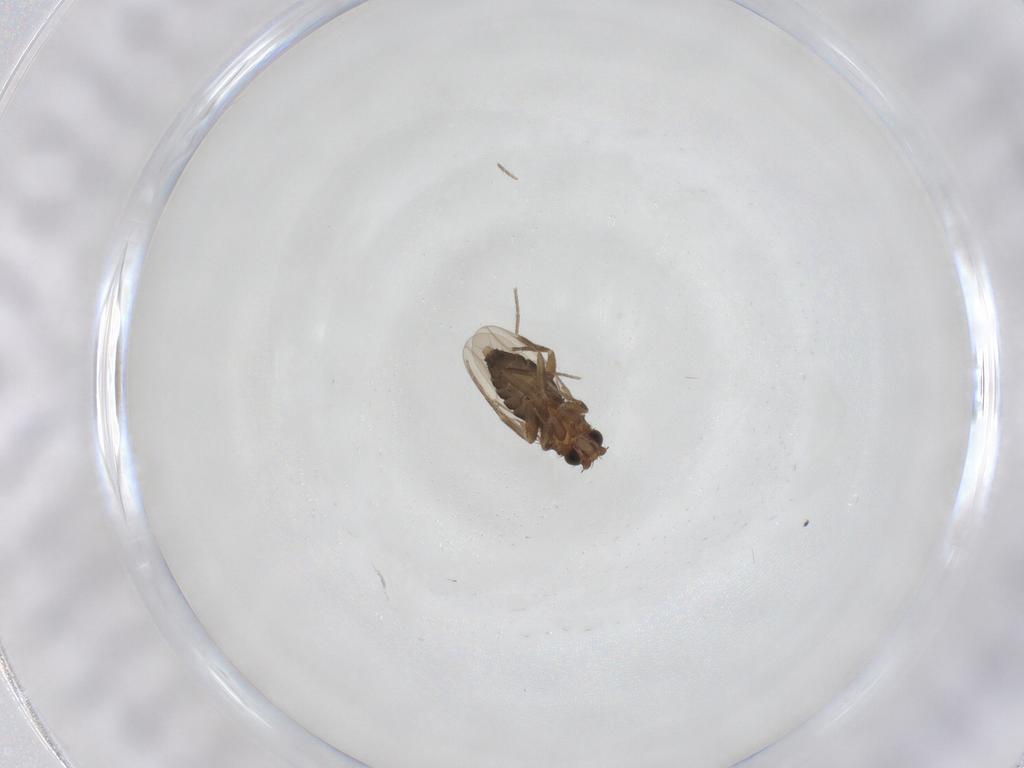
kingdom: Animalia
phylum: Arthropoda
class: Insecta
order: Diptera
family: Phoridae
